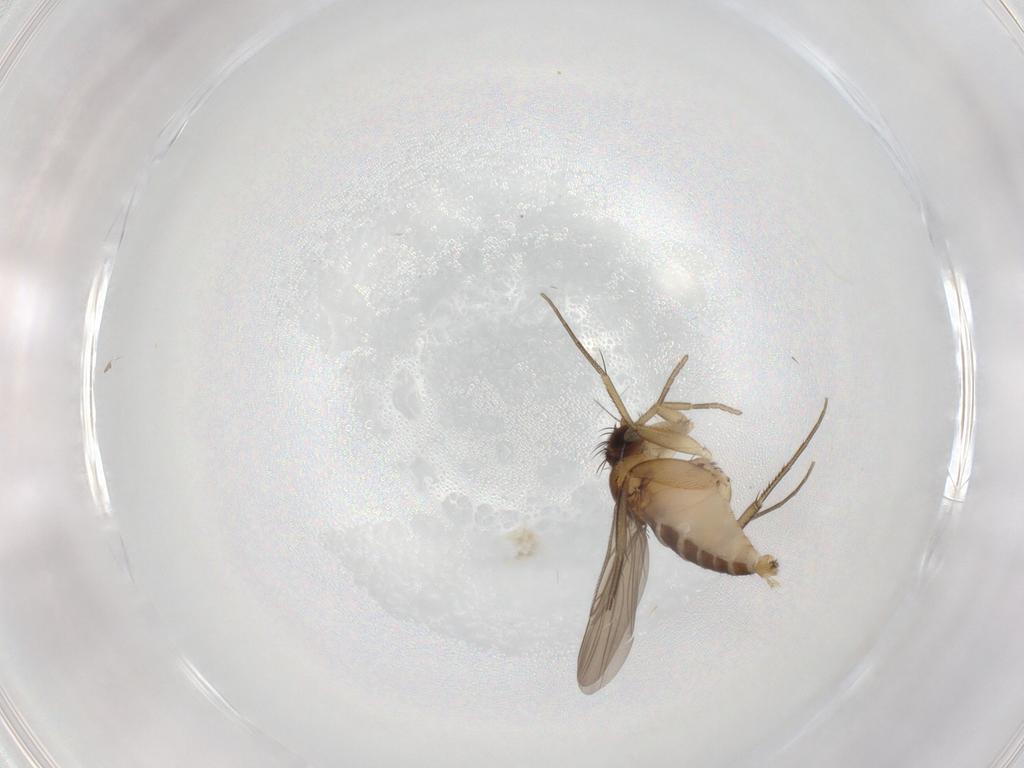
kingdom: Animalia
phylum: Arthropoda
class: Insecta
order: Diptera
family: Phoridae
